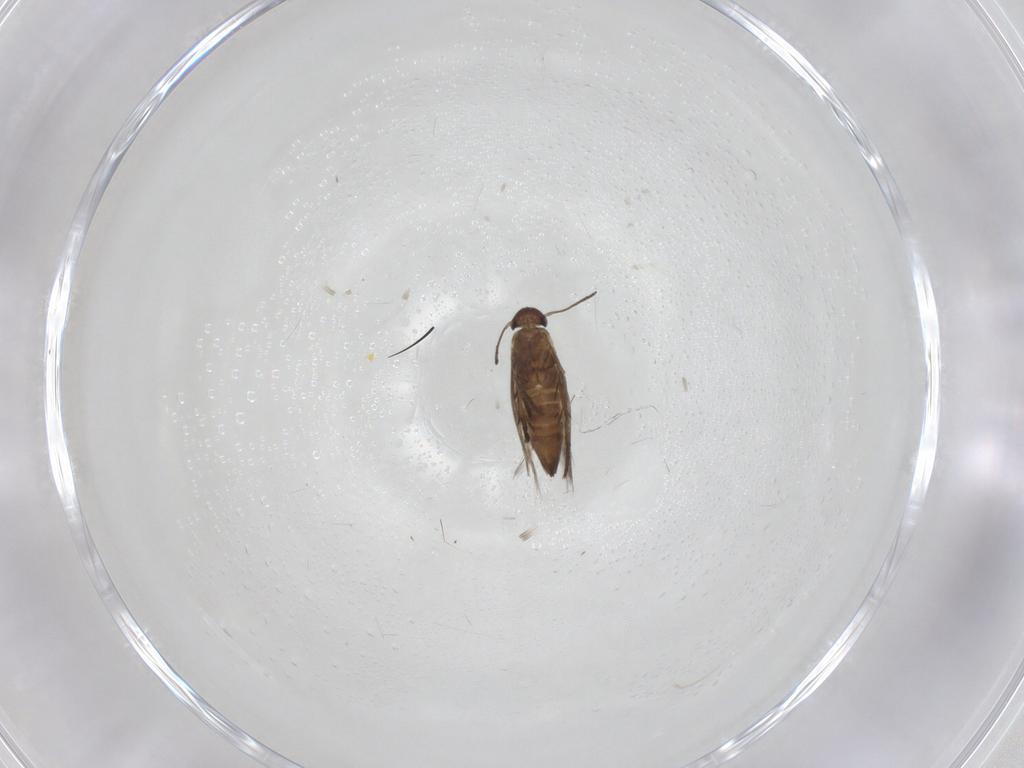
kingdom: Animalia
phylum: Arthropoda
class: Insecta
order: Lepidoptera
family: Heliozelidae
